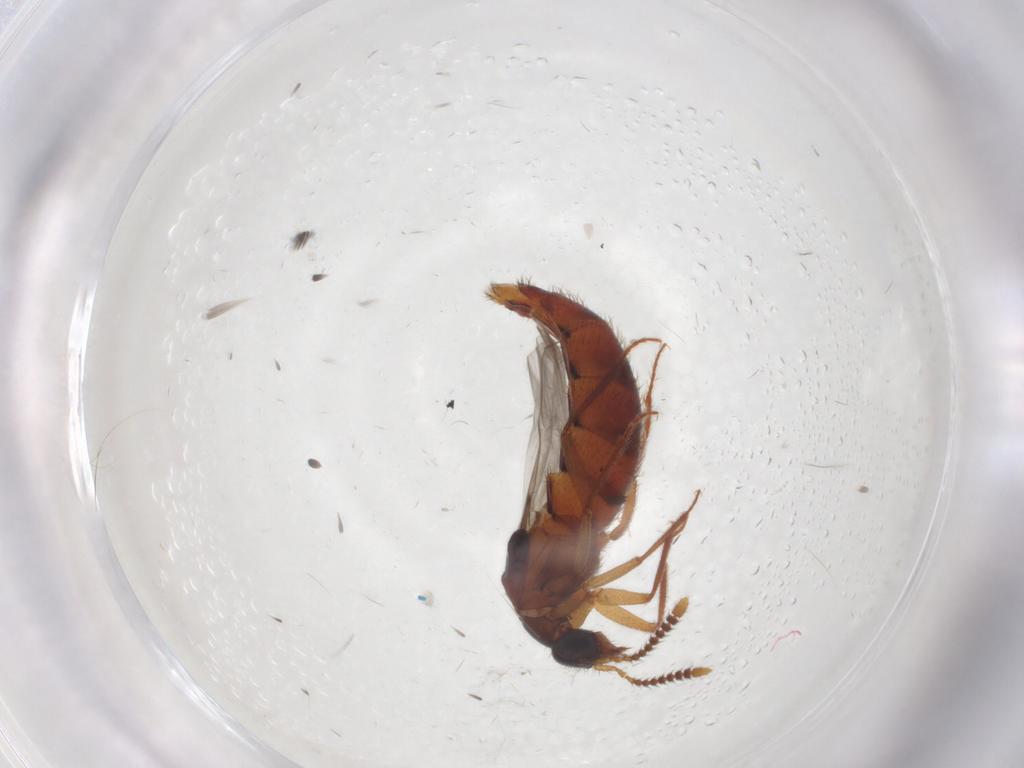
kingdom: Animalia
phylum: Arthropoda
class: Insecta
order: Coleoptera
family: Staphylinidae
